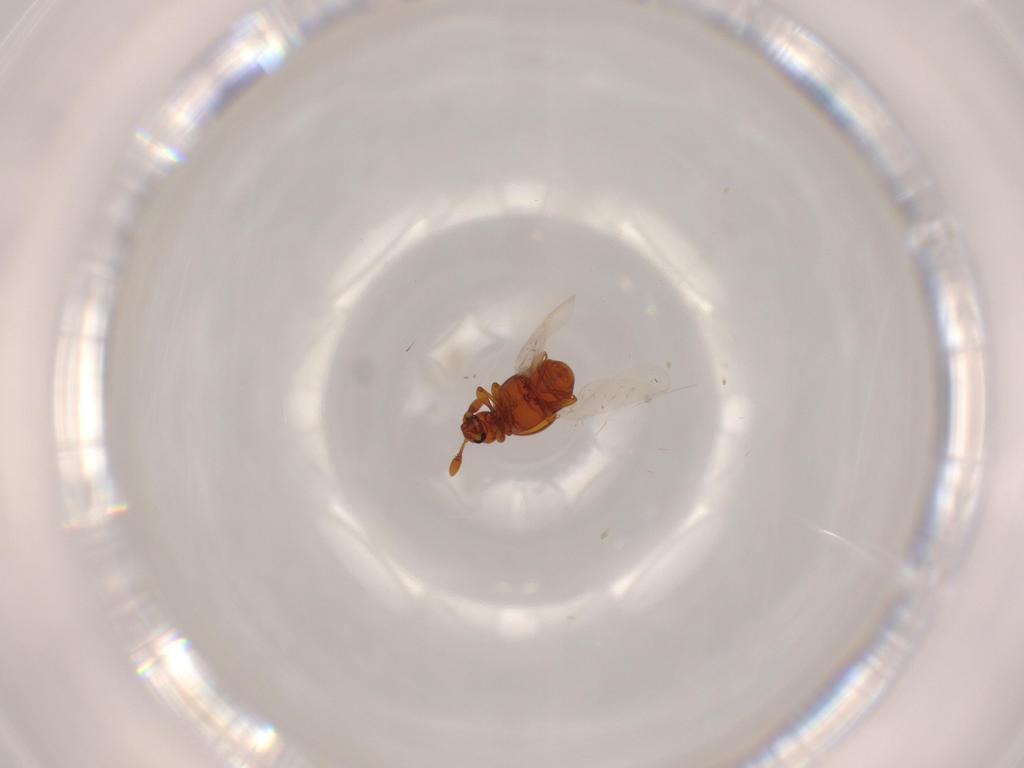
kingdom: Animalia
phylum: Arthropoda
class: Insecta
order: Coleoptera
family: Staphylinidae
